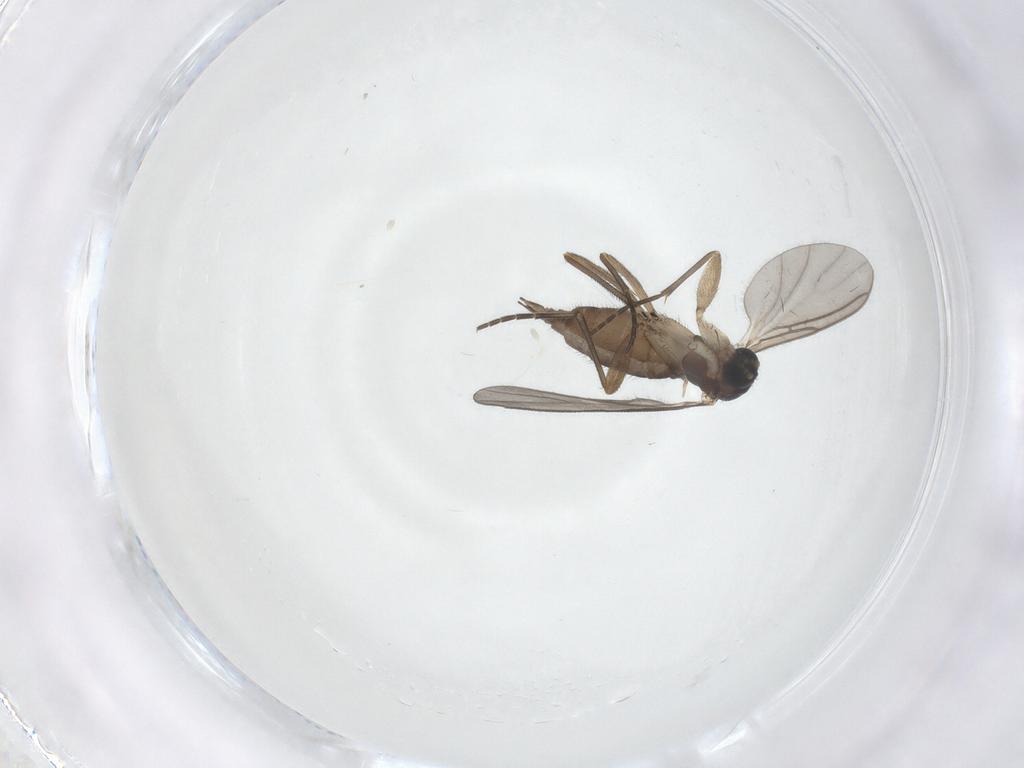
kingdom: Animalia
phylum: Arthropoda
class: Insecta
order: Diptera
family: Sciaridae
